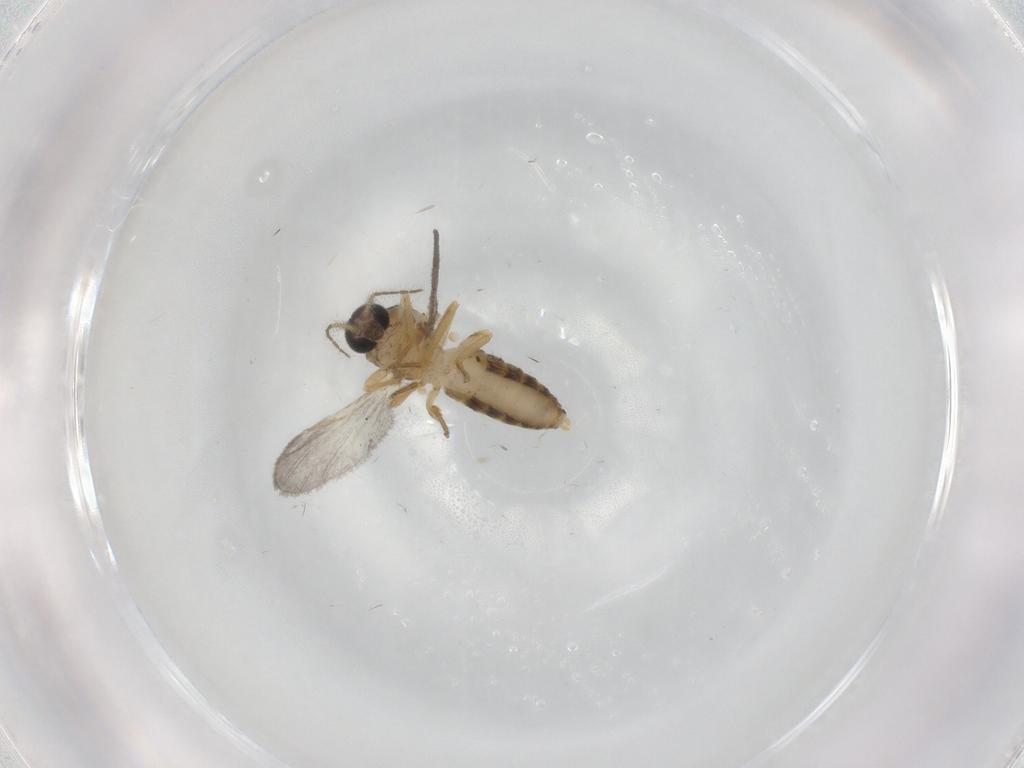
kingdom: Animalia
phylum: Arthropoda
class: Insecta
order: Diptera
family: Ceratopogonidae
